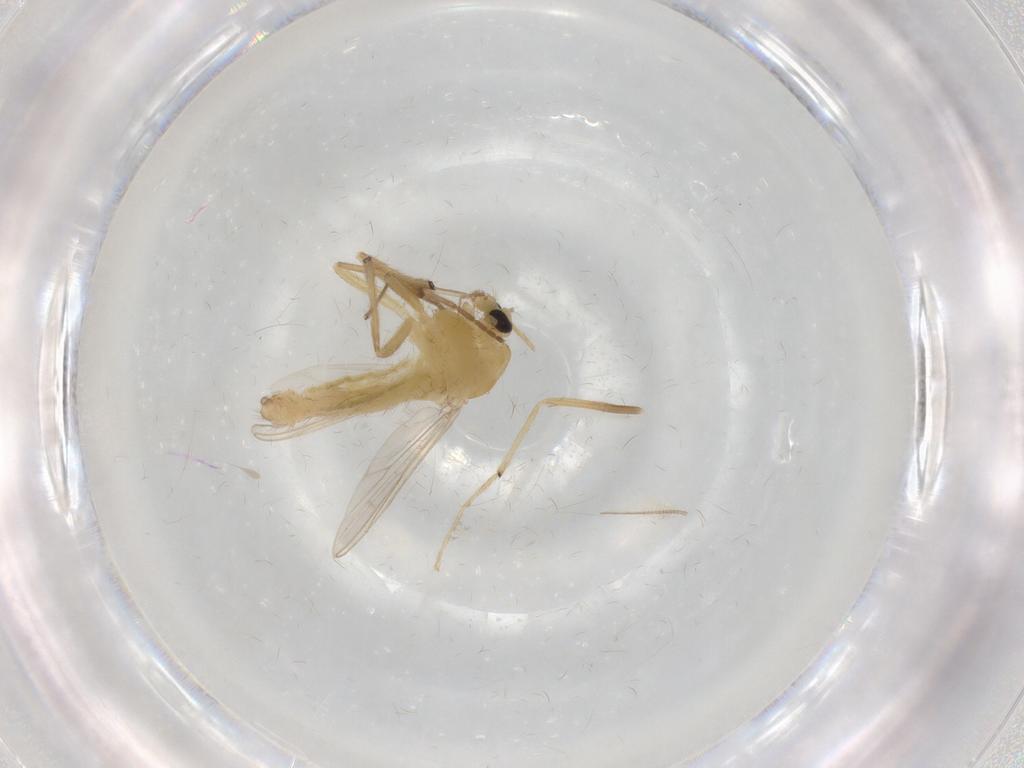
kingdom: Animalia
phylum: Arthropoda
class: Insecta
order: Diptera
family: Chironomidae
